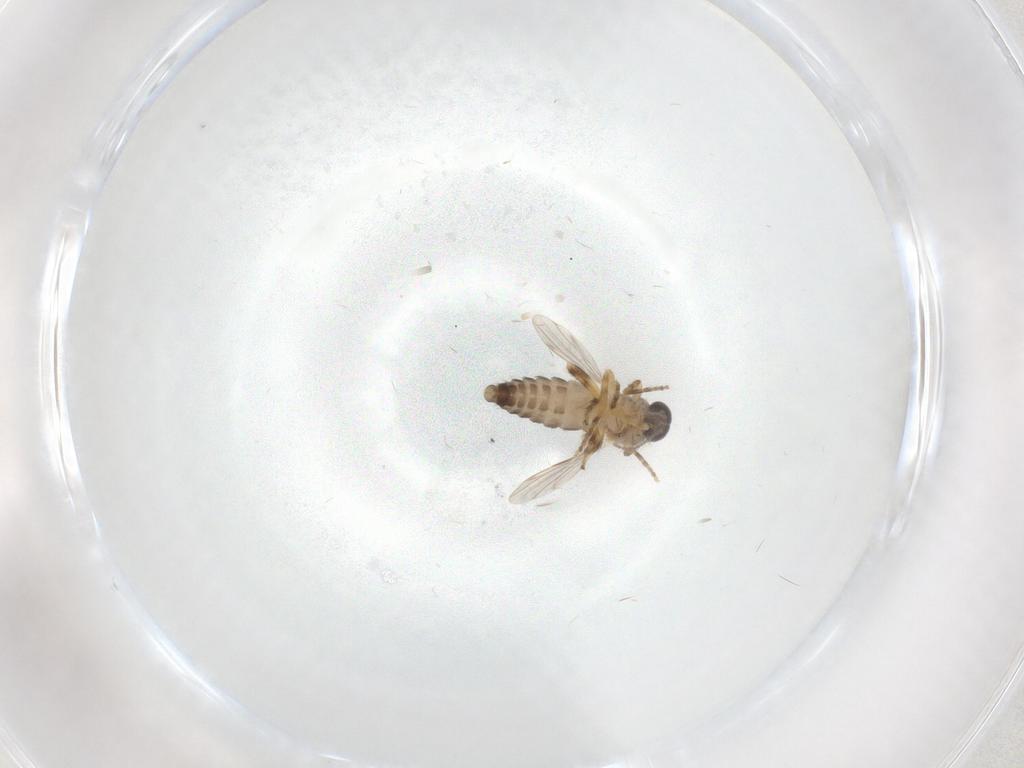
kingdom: Animalia
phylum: Arthropoda
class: Insecta
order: Diptera
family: Ceratopogonidae
